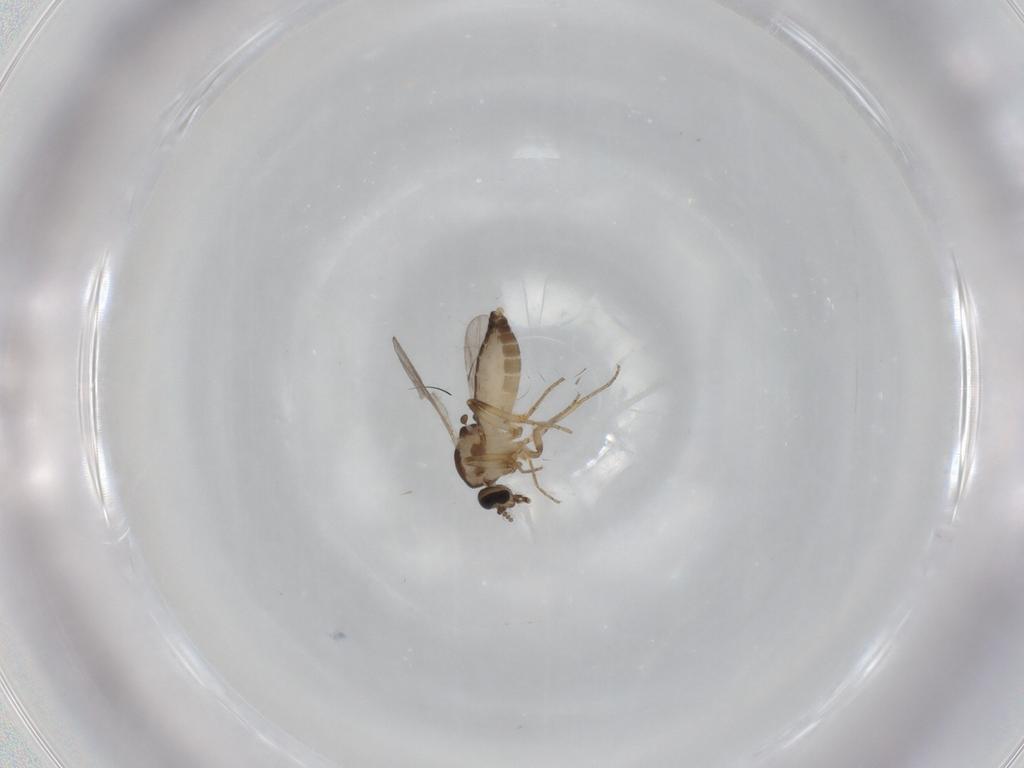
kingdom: Animalia
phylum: Arthropoda
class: Insecta
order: Diptera
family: Ceratopogonidae
